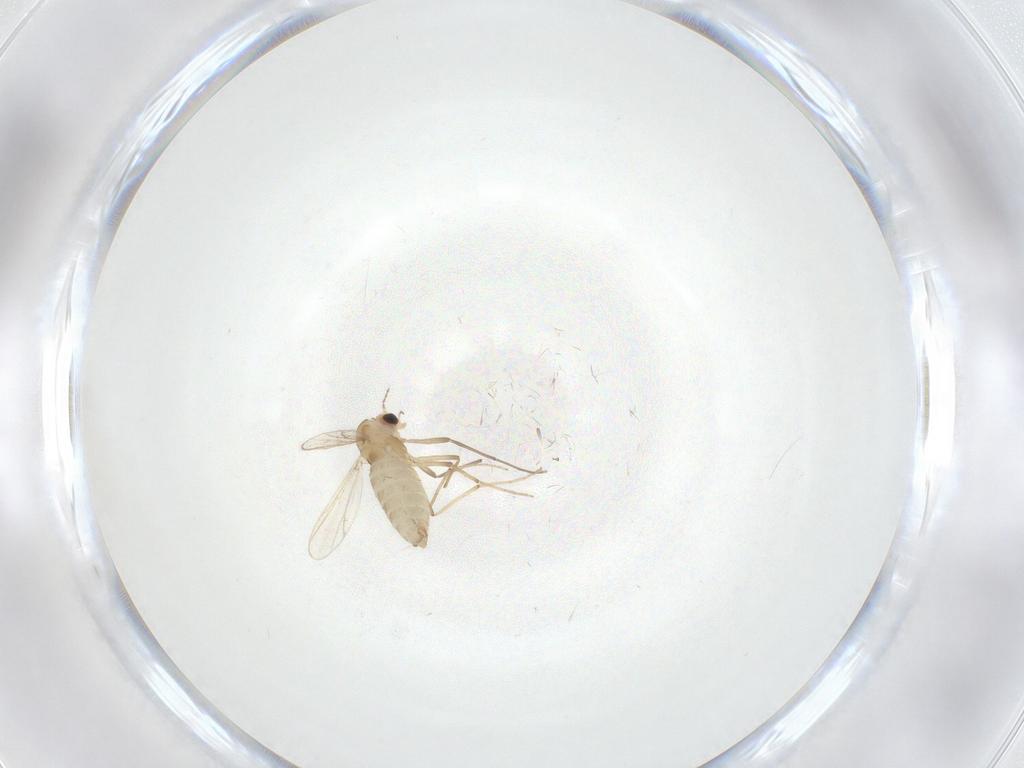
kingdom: Animalia
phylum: Arthropoda
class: Insecta
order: Diptera
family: Chironomidae
